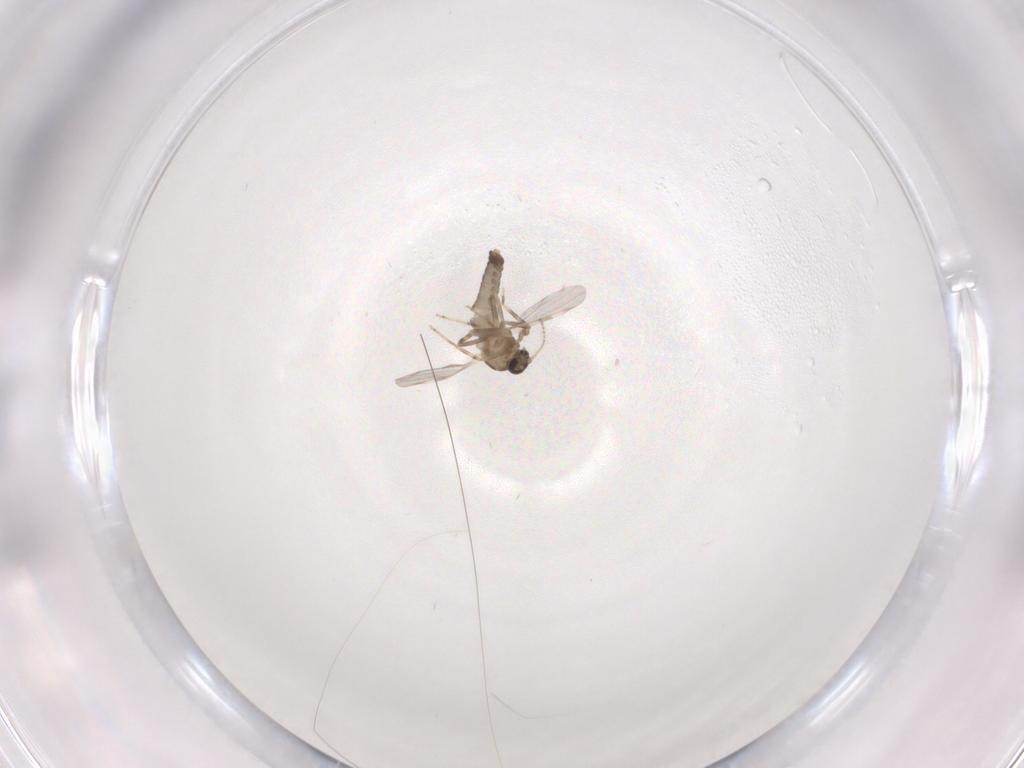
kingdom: Animalia
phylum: Arthropoda
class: Insecta
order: Diptera
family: Ceratopogonidae
